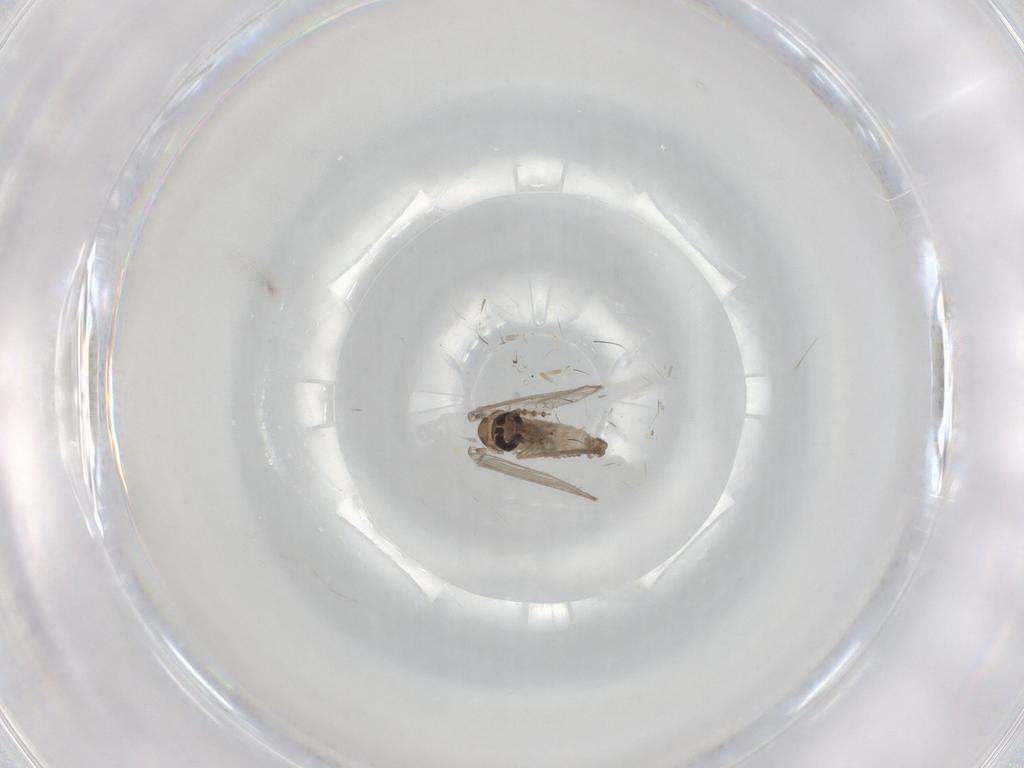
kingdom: Animalia
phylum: Arthropoda
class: Insecta
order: Diptera
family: Psychodidae
